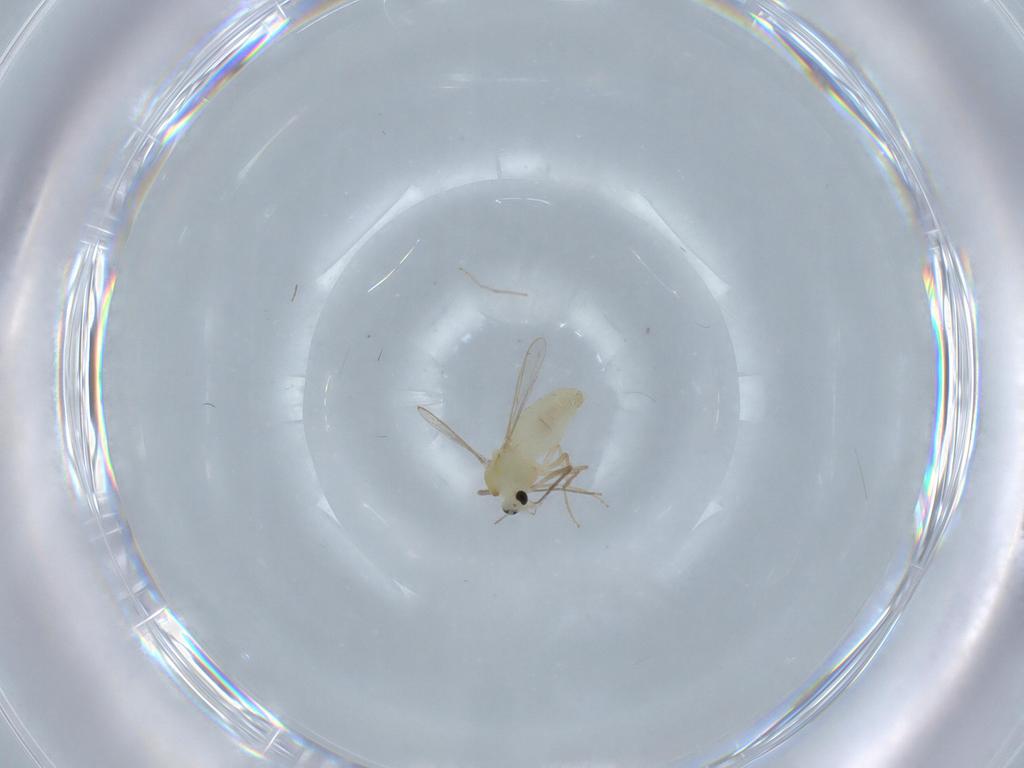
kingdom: Animalia
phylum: Arthropoda
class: Insecta
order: Diptera
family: Chironomidae
